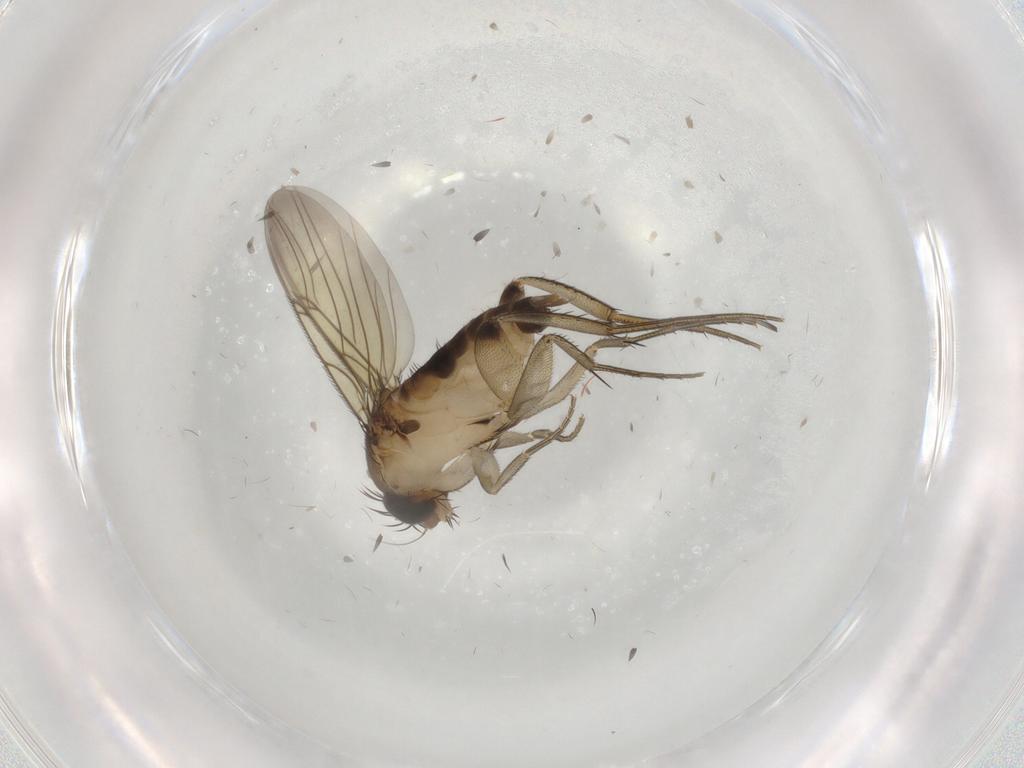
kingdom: Animalia
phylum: Arthropoda
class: Insecta
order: Diptera
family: Phoridae
